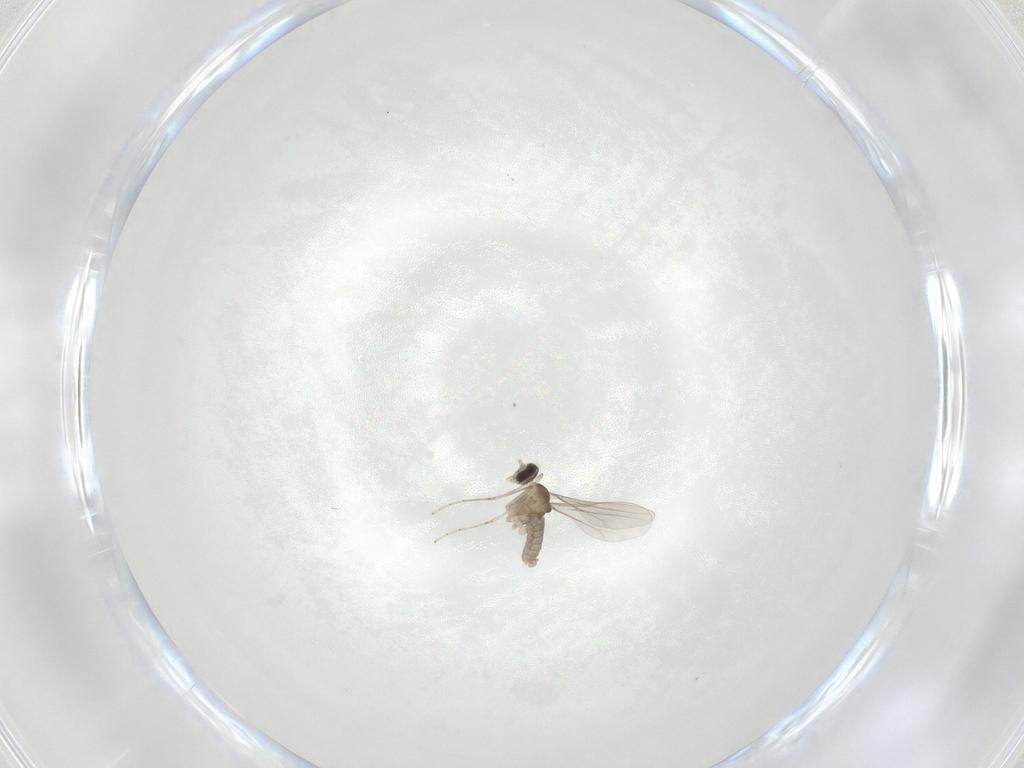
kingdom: Animalia
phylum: Arthropoda
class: Insecta
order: Diptera
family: Cecidomyiidae
